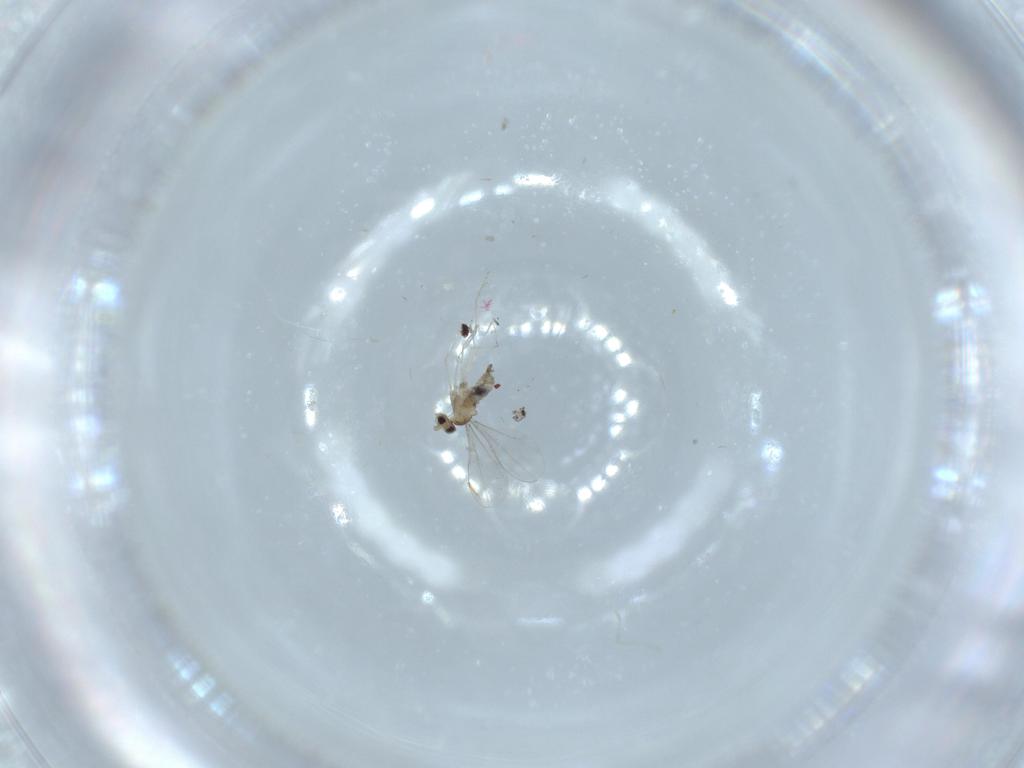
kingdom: Animalia
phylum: Arthropoda
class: Insecta
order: Diptera
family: Cecidomyiidae
